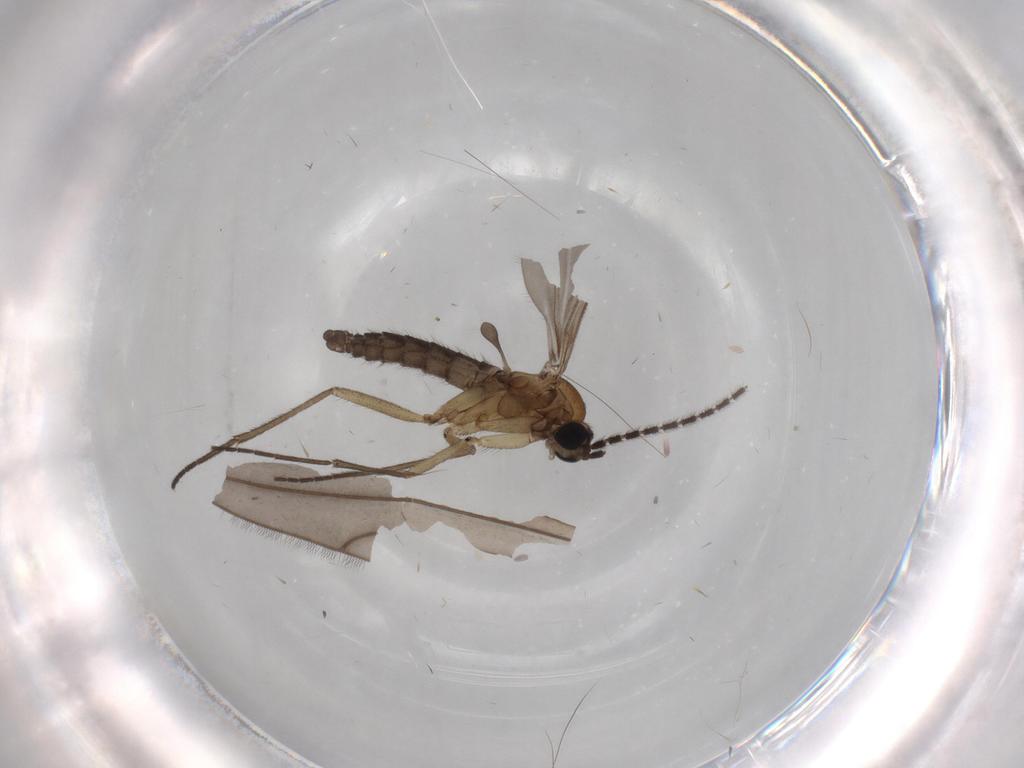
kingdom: Animalia
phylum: Arthropoda
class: Insecta
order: Diptera
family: Sciaridae
